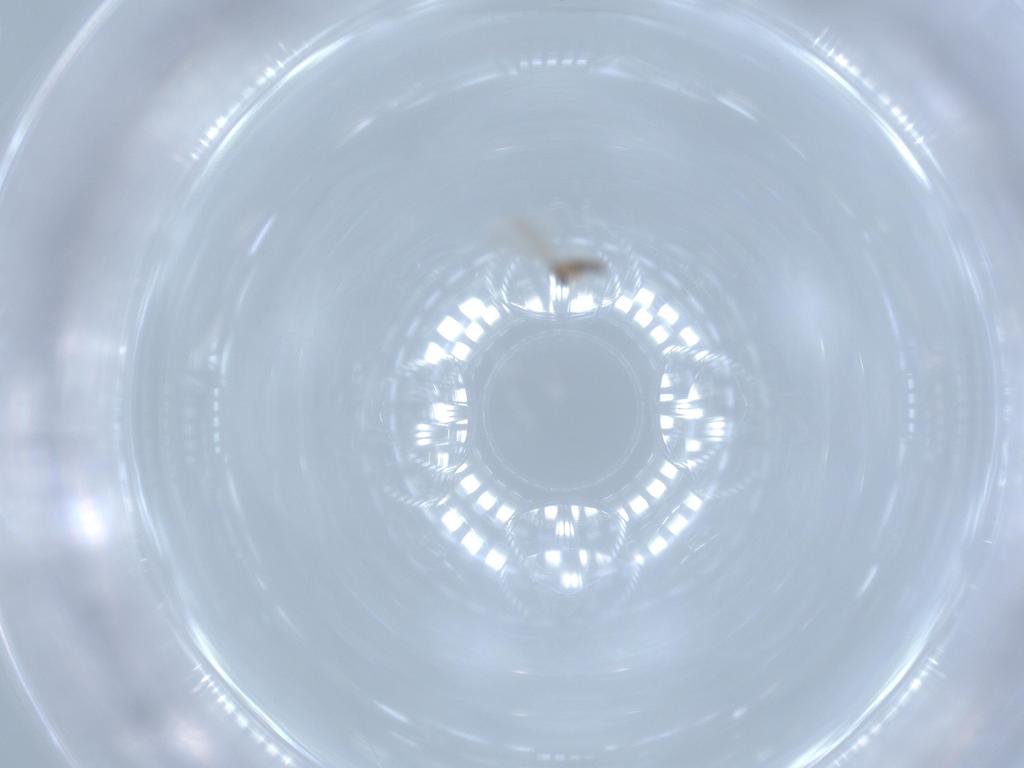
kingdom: Animalia
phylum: Arthropoda
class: Insecta
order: Diptera
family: Cecidomyiidae
